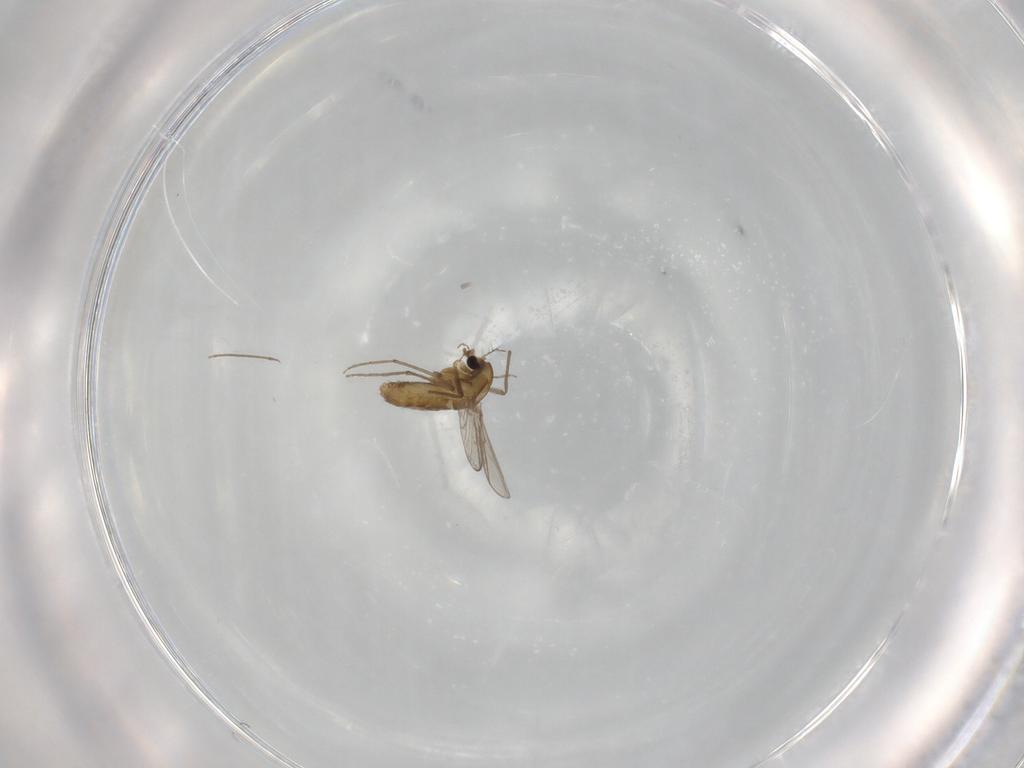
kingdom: Animalia
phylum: Arthropoda
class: Insecta
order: Diptera
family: Chironomidae
